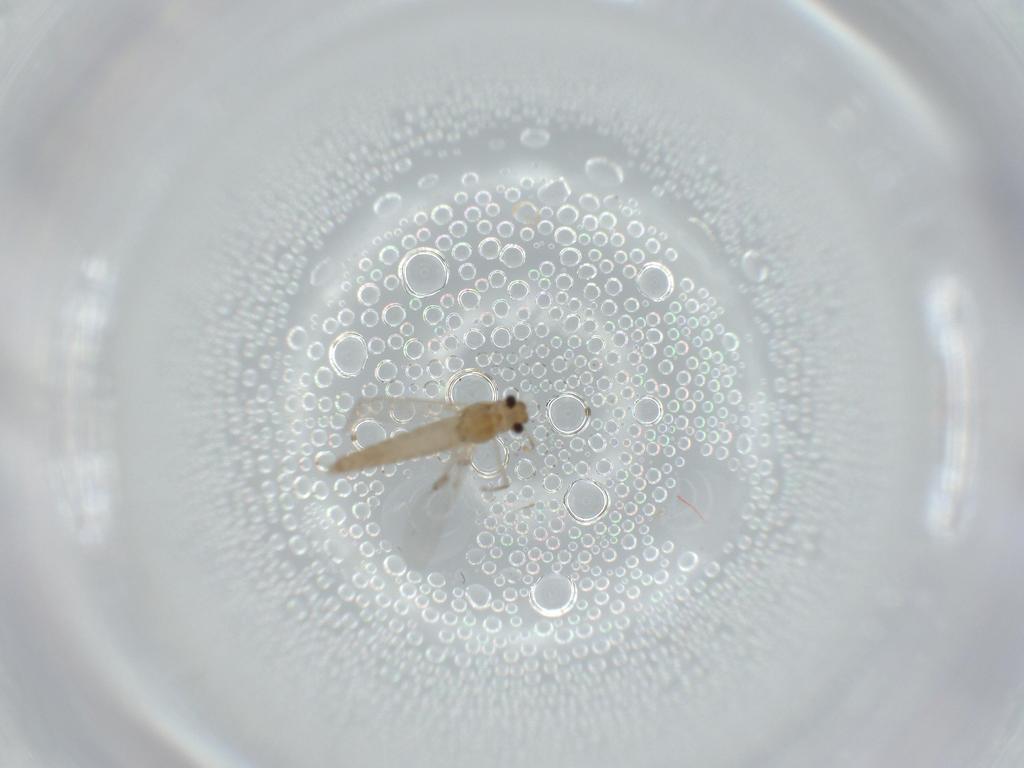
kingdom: Animalia
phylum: Arthropoda
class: Insecta
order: Diptera
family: Chironomidae
